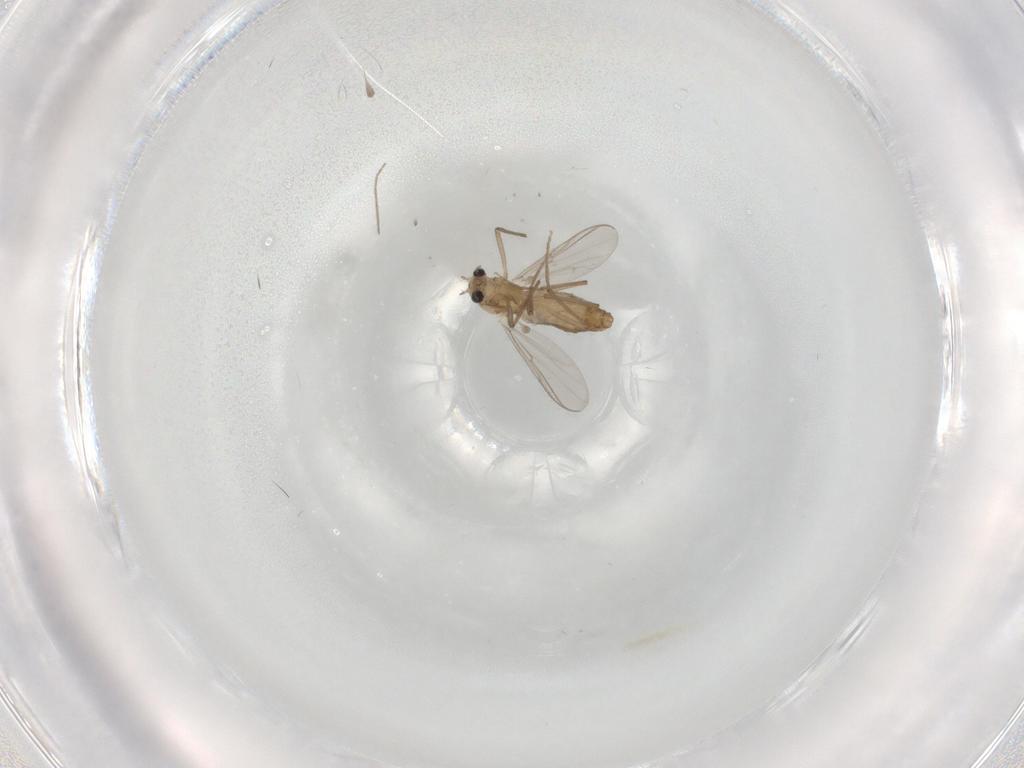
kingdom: Animalia
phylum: Arthropoda
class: Insecta
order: Diptera
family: Chironomidae
